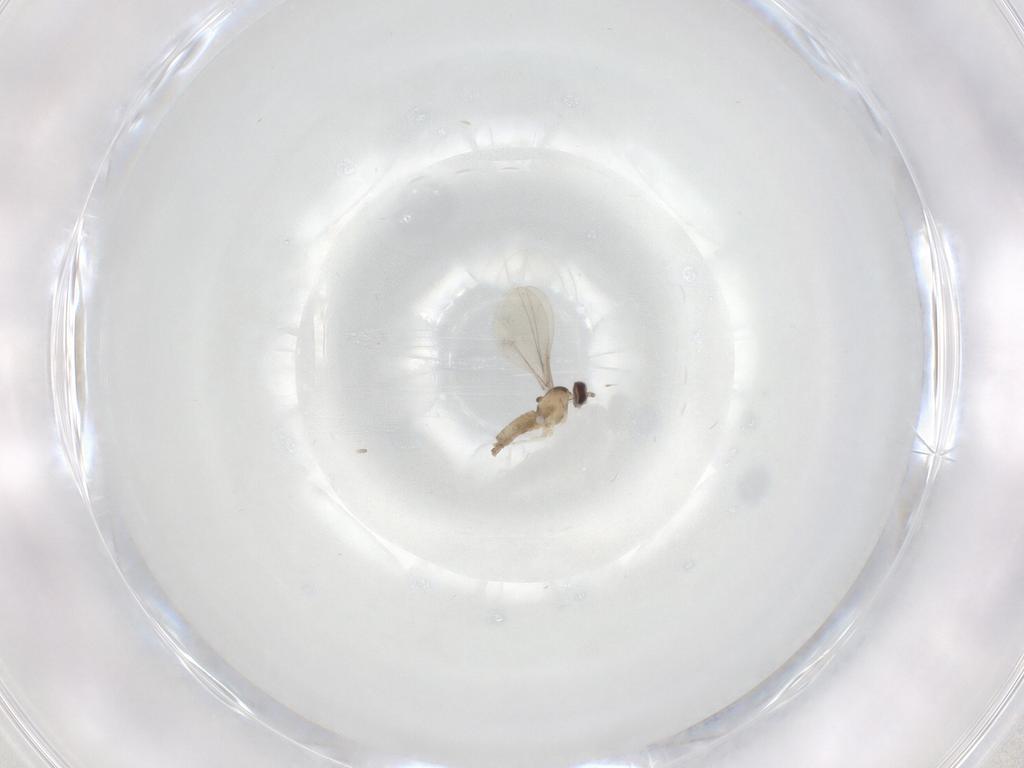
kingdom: Animalia
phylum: Arthropoda
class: Insecta
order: Diptera
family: Cecidomyiidae
